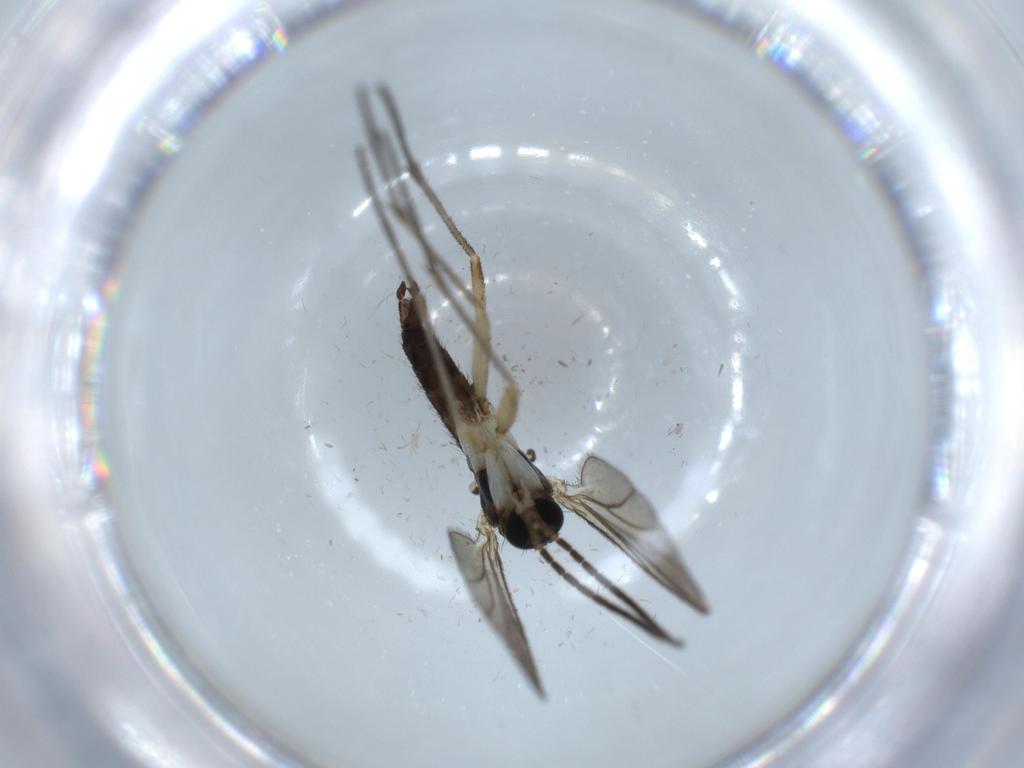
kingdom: Animalia
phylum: Arthropoda
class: Insecta
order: Diptera
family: Sciaridae
